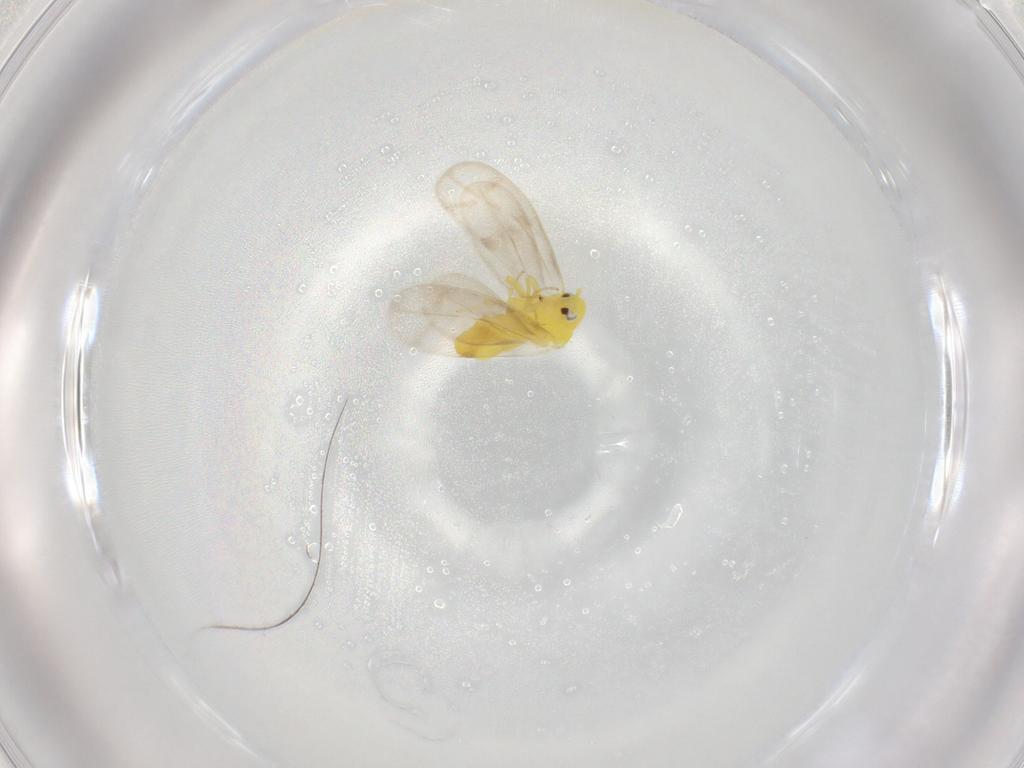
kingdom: Animalia
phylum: Arthropoda
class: Insecta
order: Hemiptera
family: Aleyrodidae
